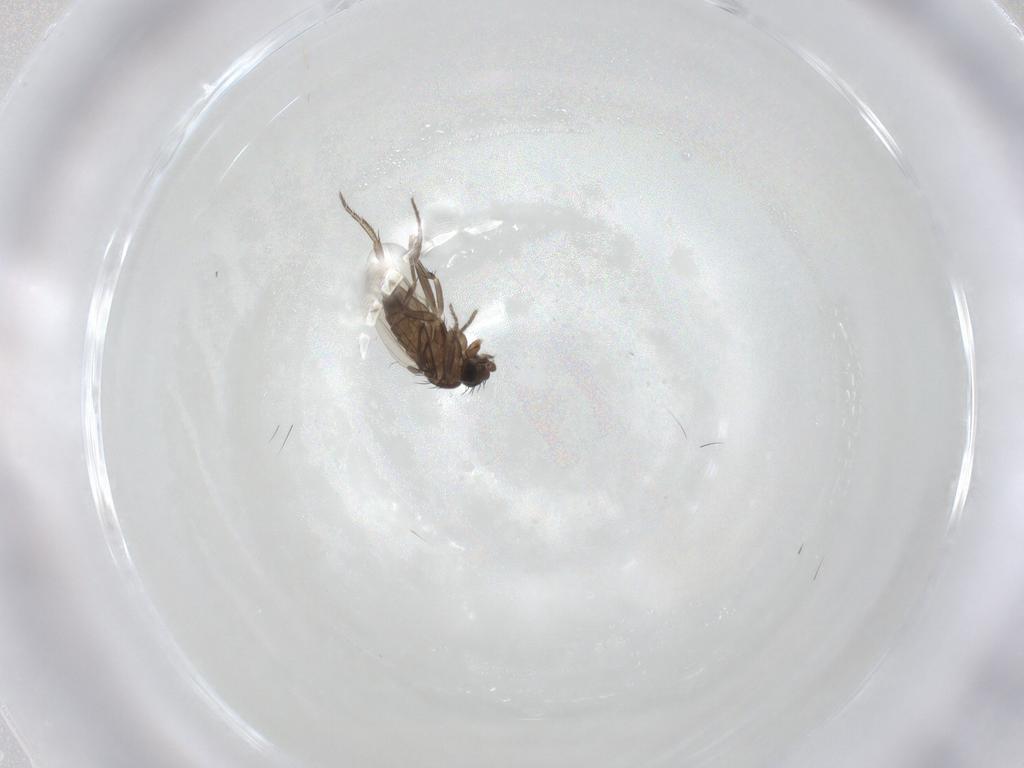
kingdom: Animalia
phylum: Arthropoda
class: Insecta
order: Diptera
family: Phoridae
